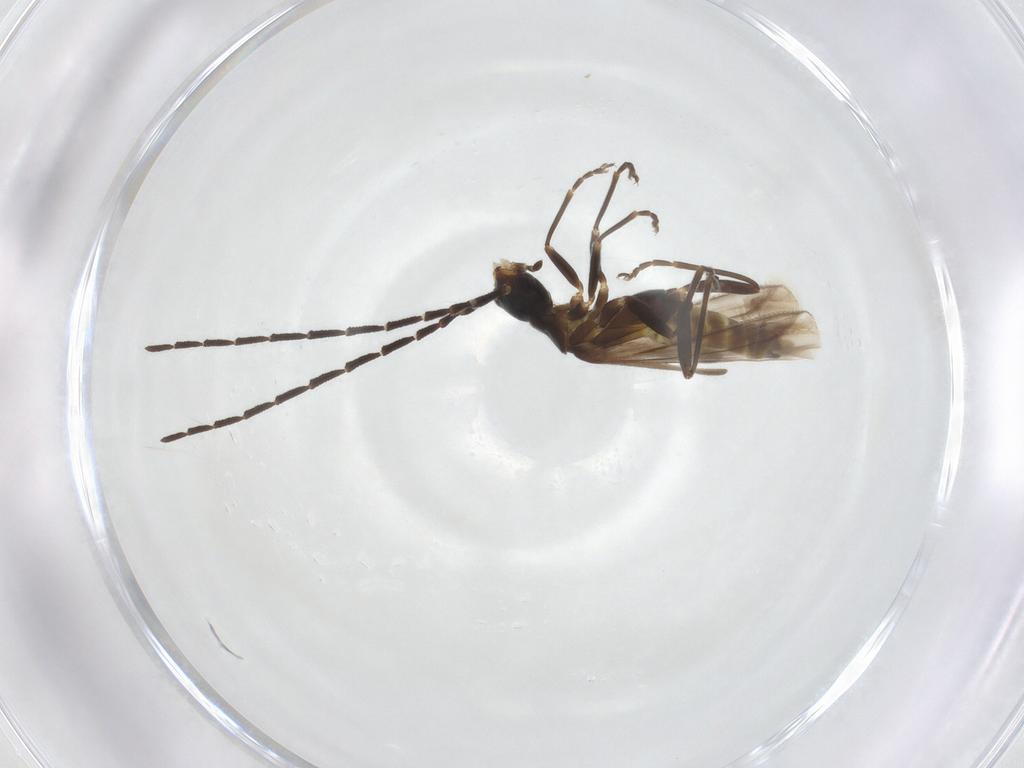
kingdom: Animalia
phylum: Arthropoda
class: Insecta
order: Coleoptera
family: Cantharidae
